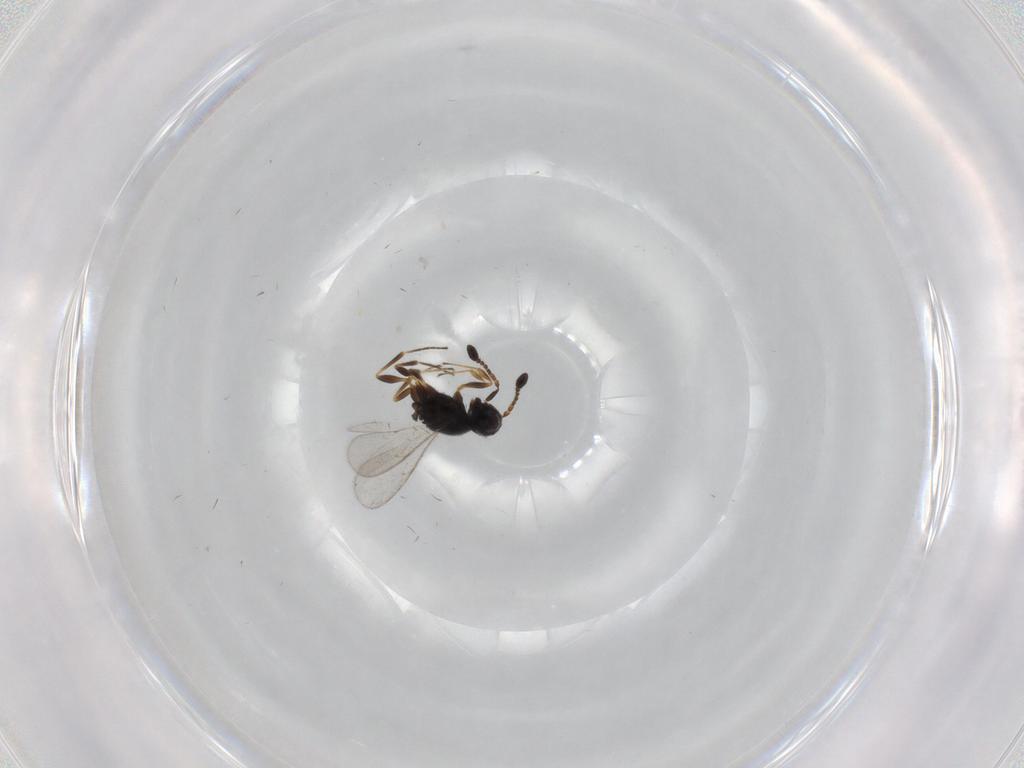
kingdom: Animalia
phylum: Arthropoda
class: Insecta
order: Hymenoptera
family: Scelionidae
